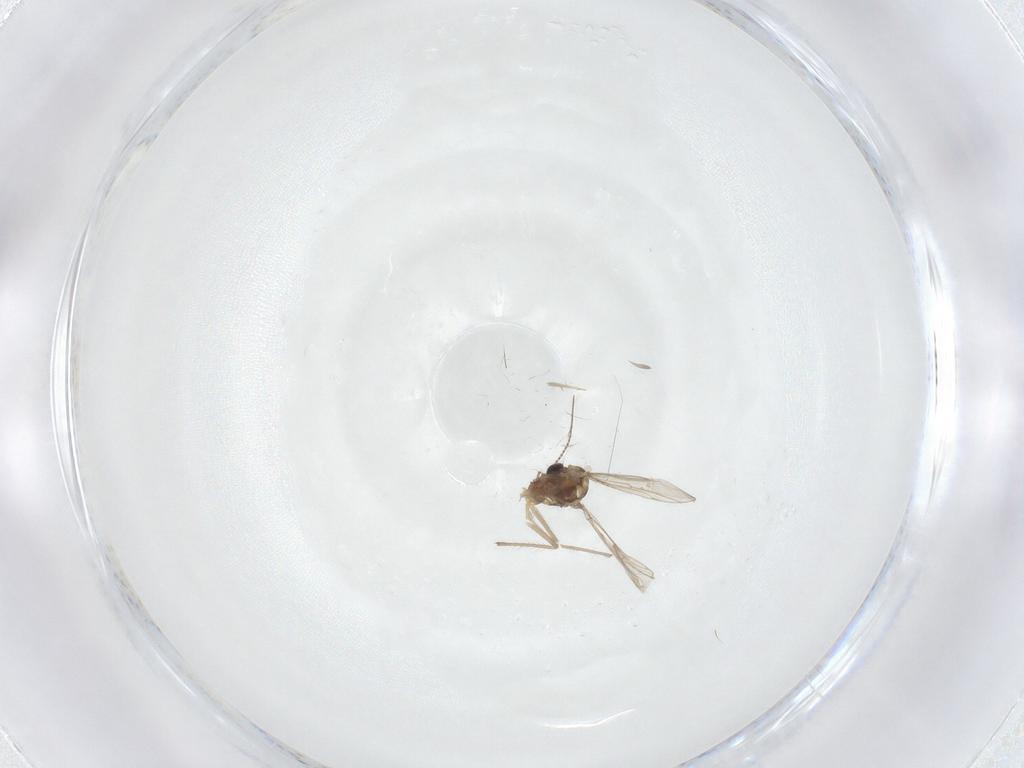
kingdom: Animalia
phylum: Arthropoda
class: Insecta
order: Diptera
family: Chironomidae
